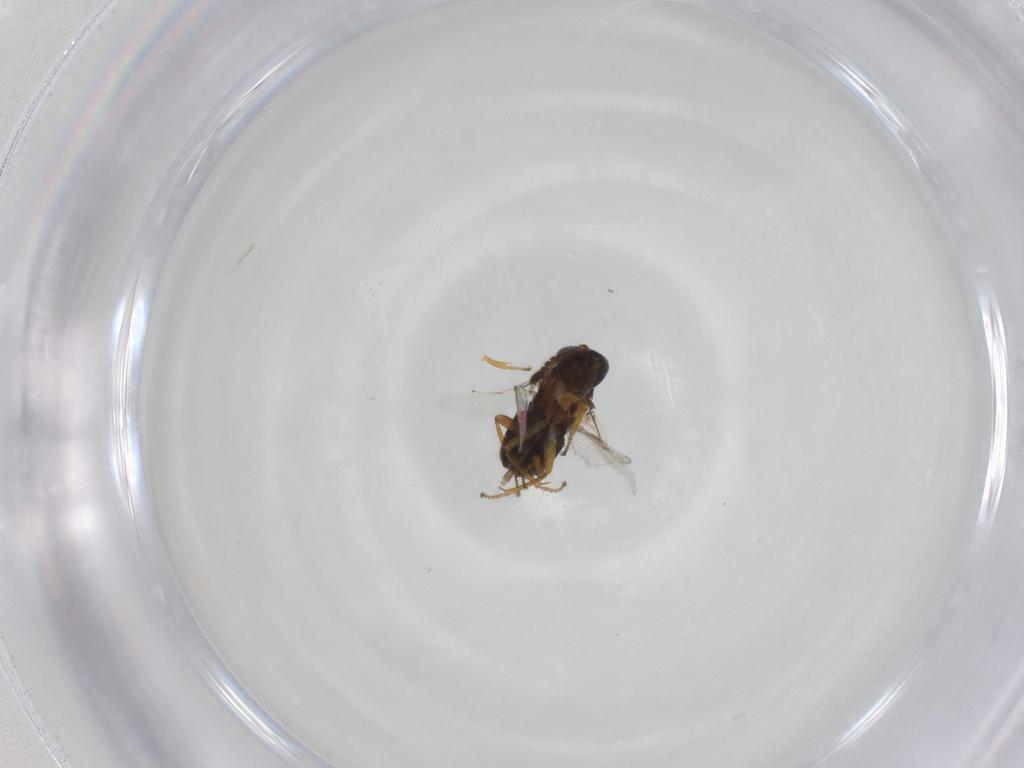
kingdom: Animalia
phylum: Arthropoda
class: Insecta
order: Hymenoptera
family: Encyrtidae
